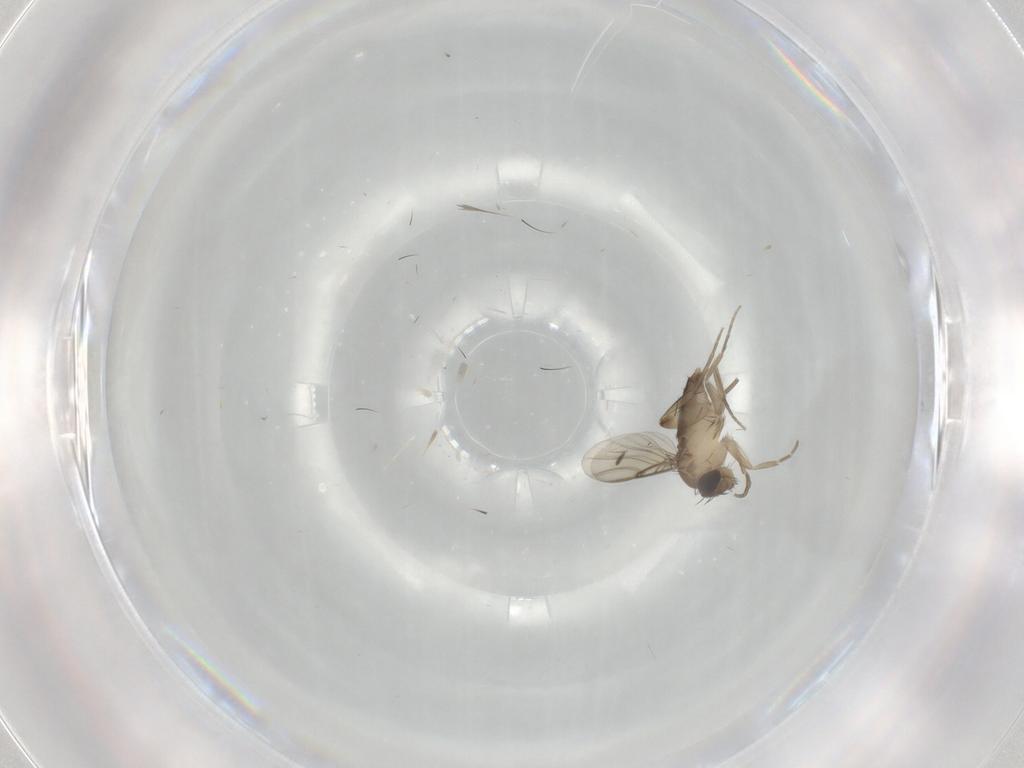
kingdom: Animalia
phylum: Arthropoda
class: Insecta
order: Diptera
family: Phoridae
